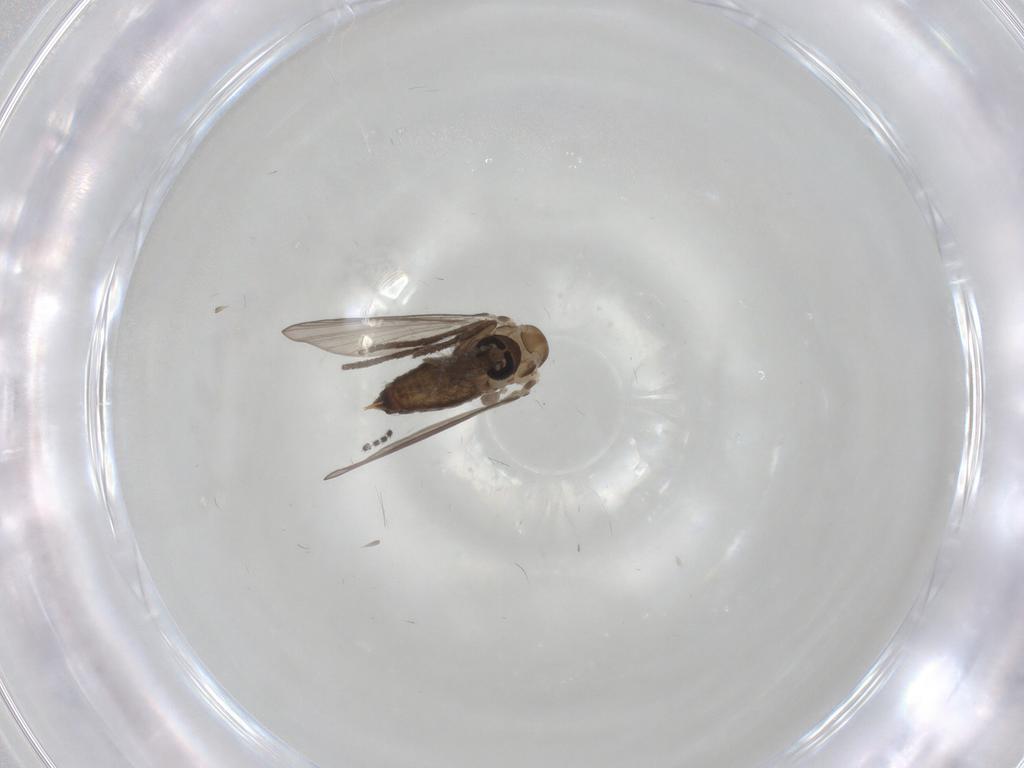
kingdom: Animalia
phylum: Arthropoda
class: Insecta
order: Diptera
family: Psychodidae
